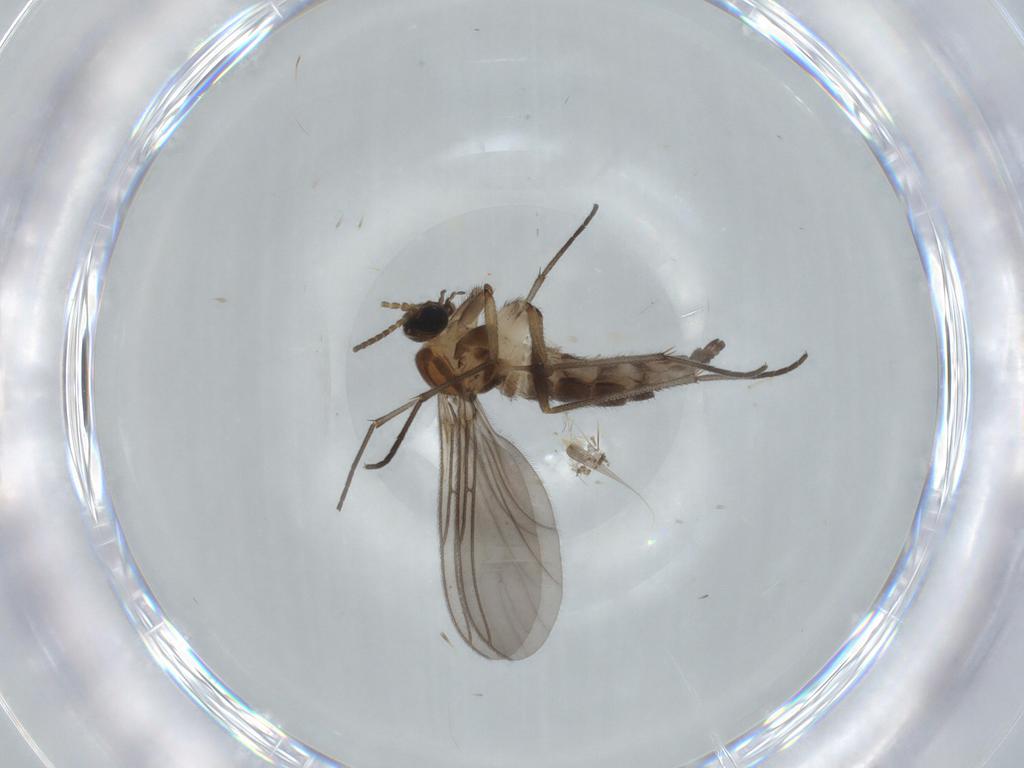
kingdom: Animalia
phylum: Arthropoda
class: Insecta
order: Diptera
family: Sciaridae
